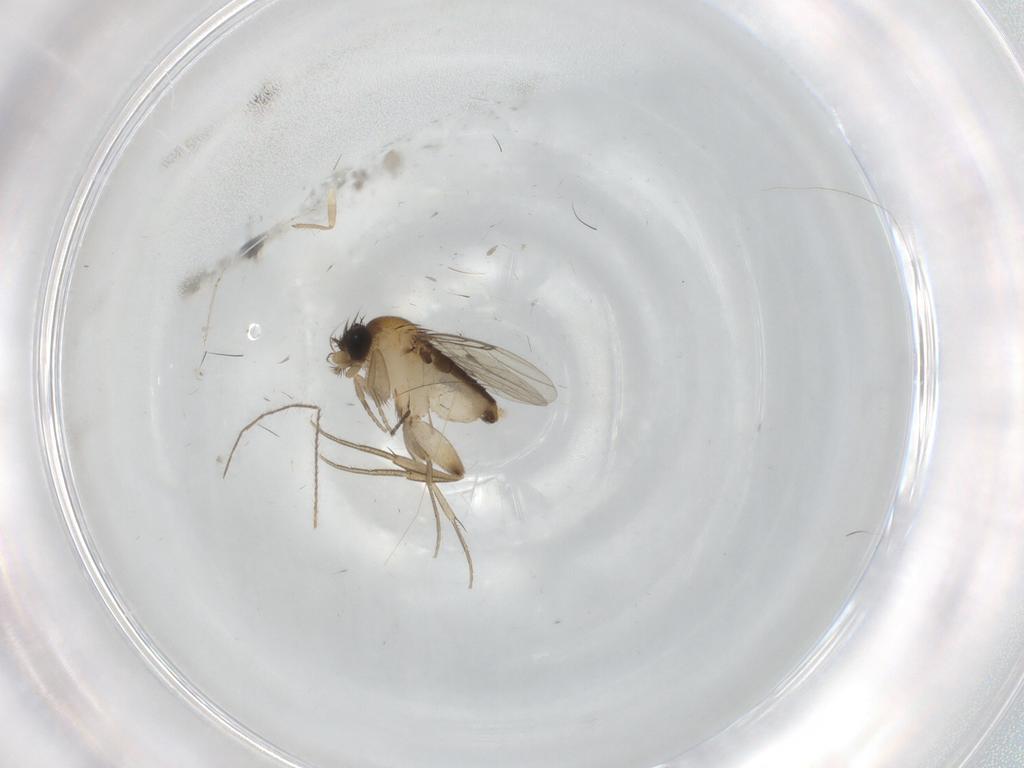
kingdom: Animalia
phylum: Arthropoda
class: Insecta
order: Diptera
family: Phoridae
